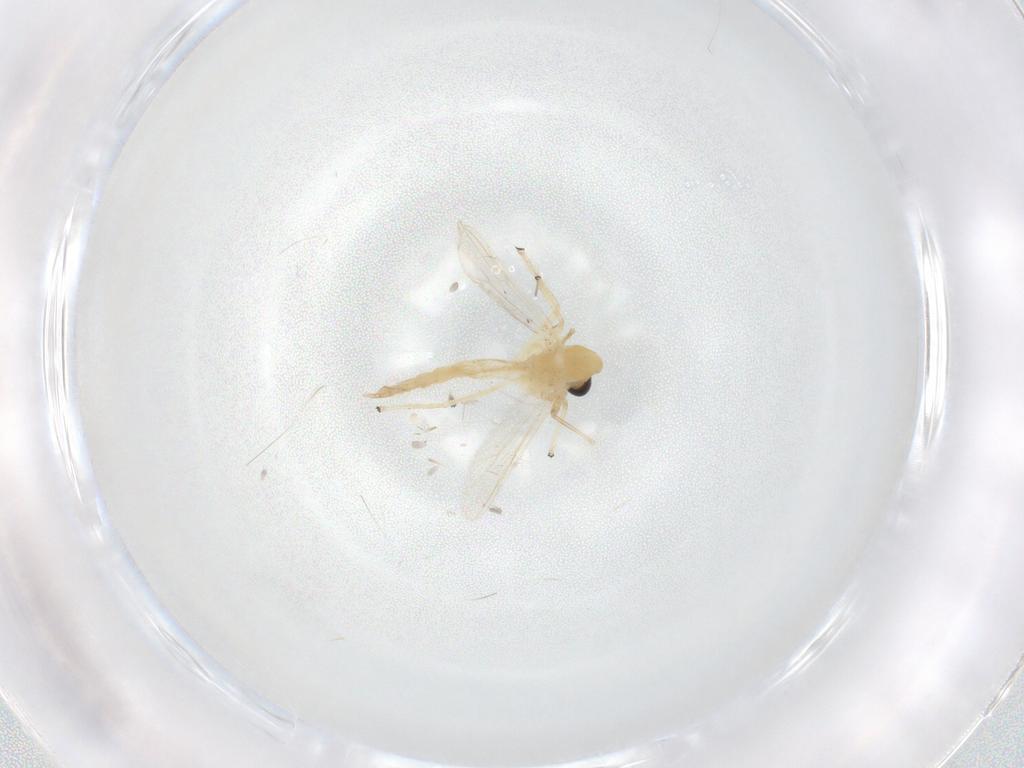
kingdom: Animalia
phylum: Arthropoda
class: Insecta
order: Diptera
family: Chironomidae
